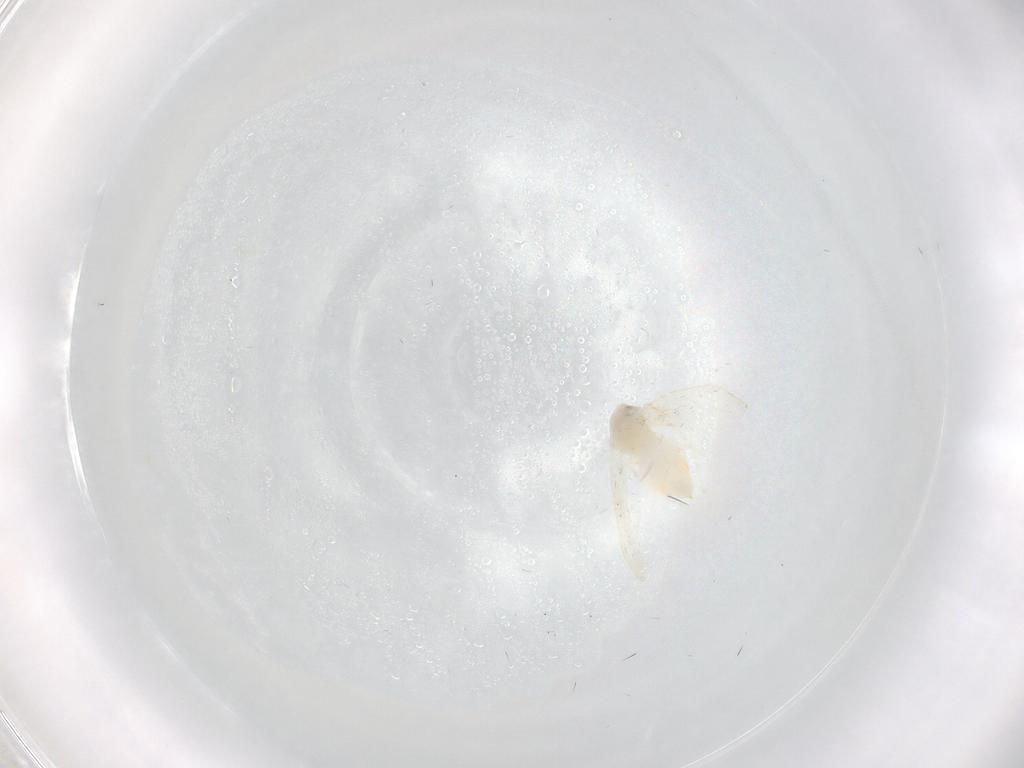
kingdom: Animalia
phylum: Arthropoda
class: Insecta
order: Hemiptera
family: Aleyrodidae
